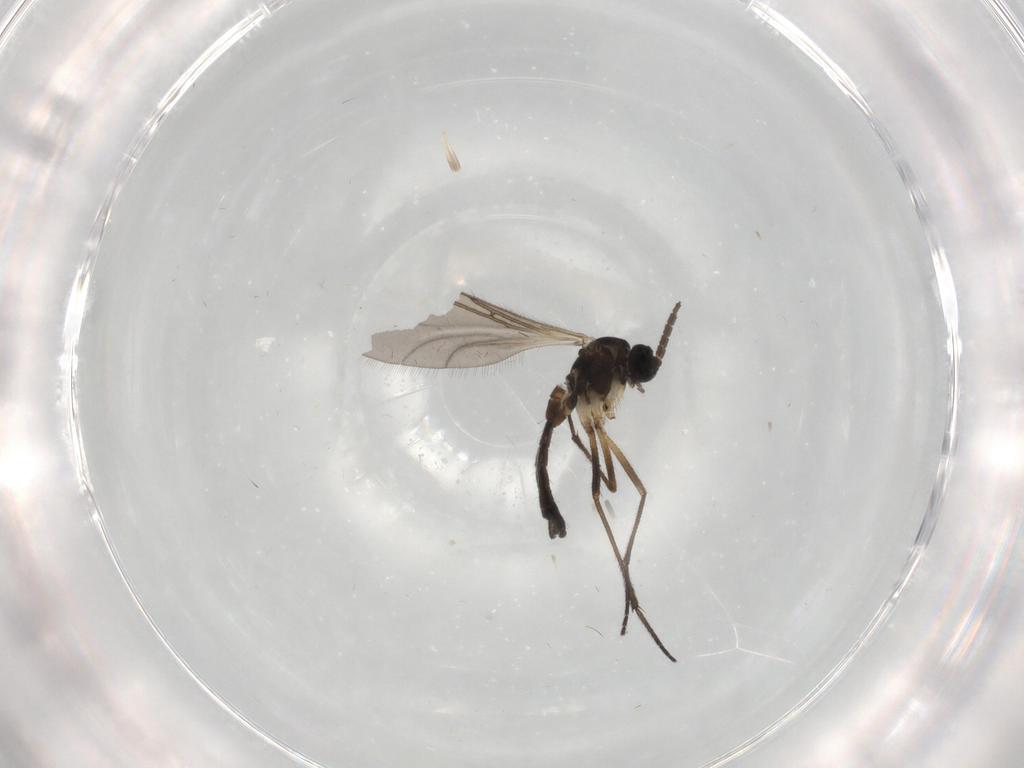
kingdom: Animalia
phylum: Arthropoda
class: Insecta
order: Diptera
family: Sciaridae
